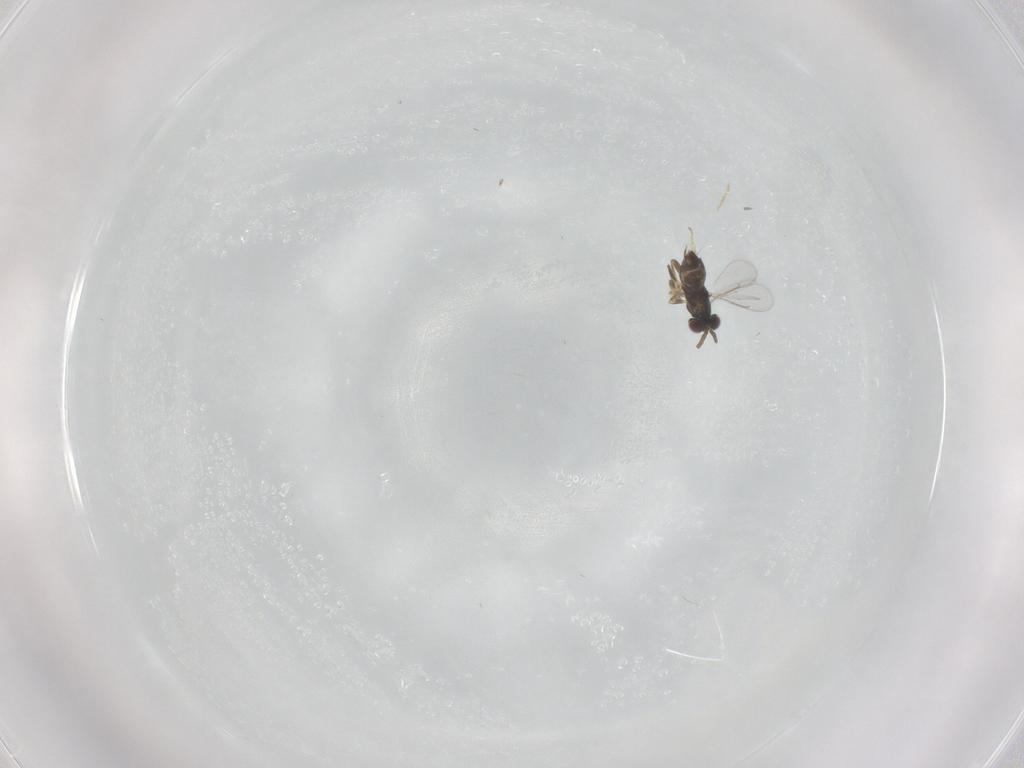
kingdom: Animalia
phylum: Arthropoda
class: Insecta
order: Hymenoptera
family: Scelionidae
